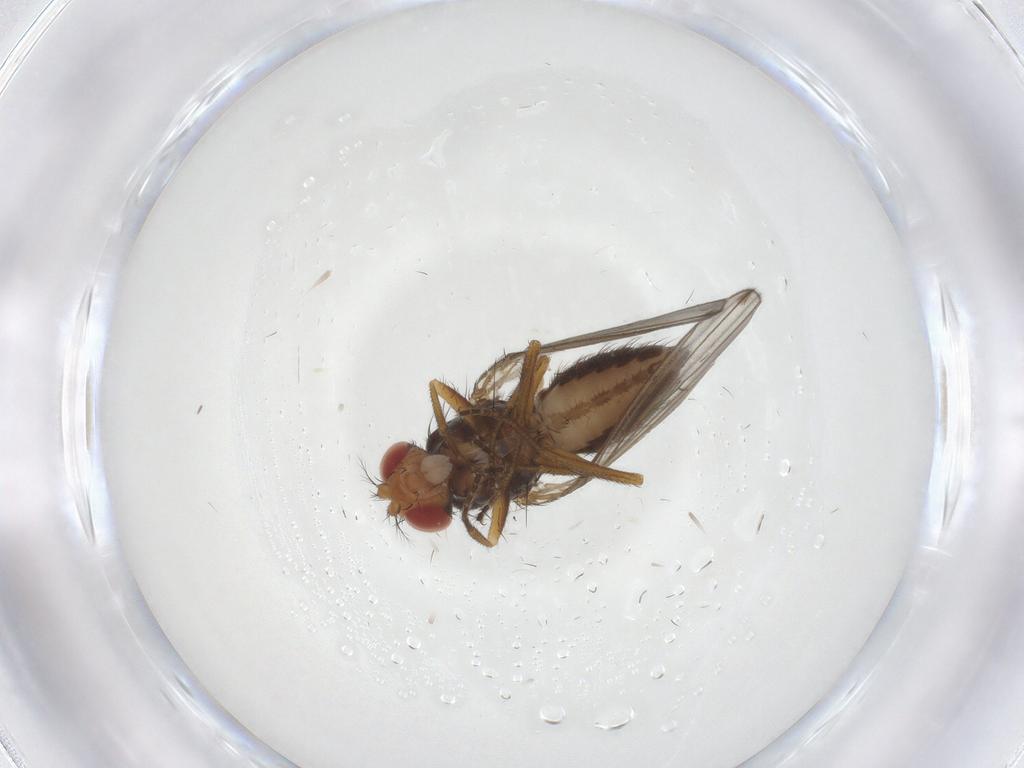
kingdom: Animalia
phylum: Arthropoda
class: Insecta
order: Diptera
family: Drosophilidae
